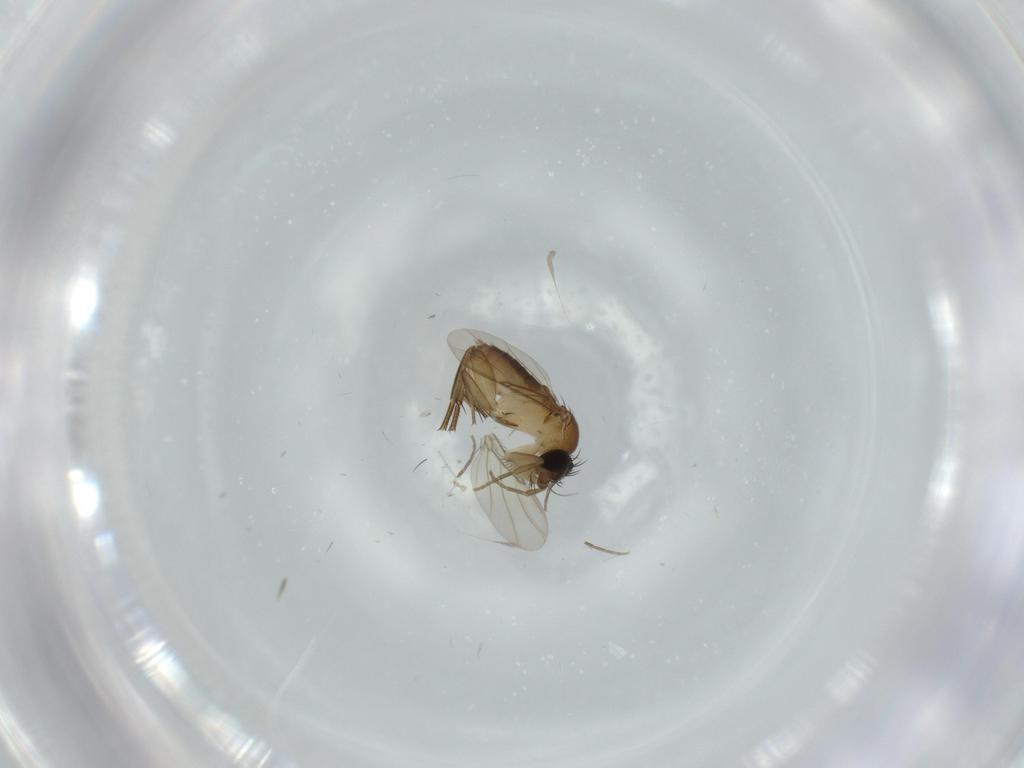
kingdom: Animalia
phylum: Arthropoda
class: Insecta
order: Diptera
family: Phoridae
